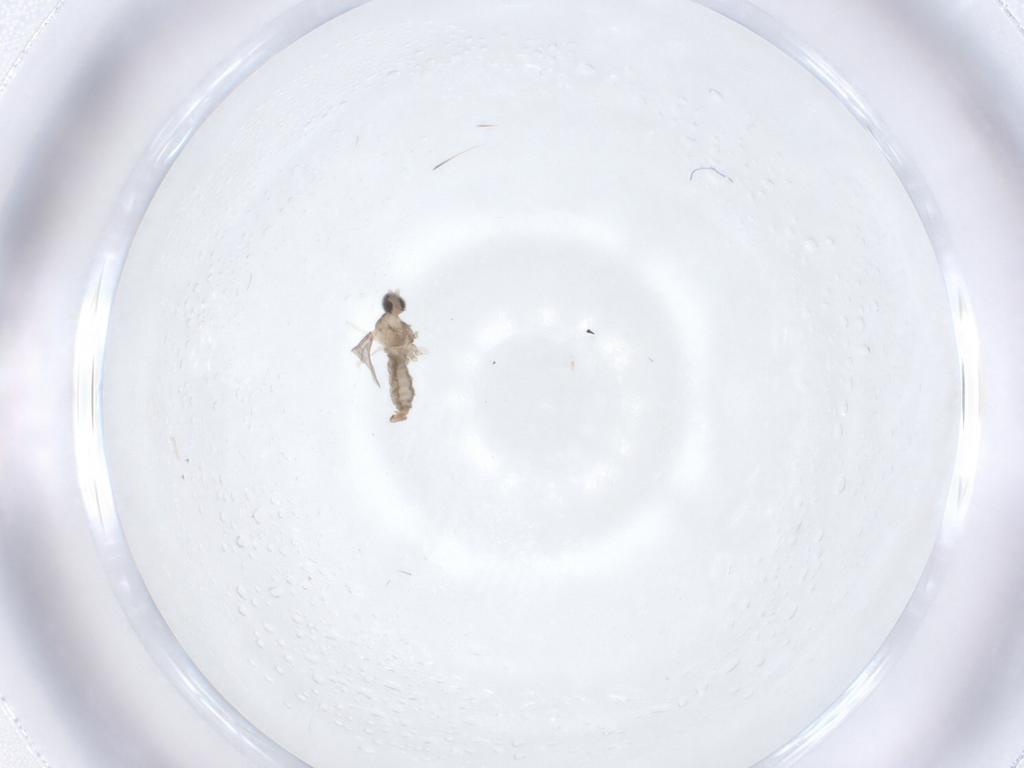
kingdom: Animalia
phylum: Arthropoda
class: Insecta
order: Diptera
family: Cecidomyiidae
